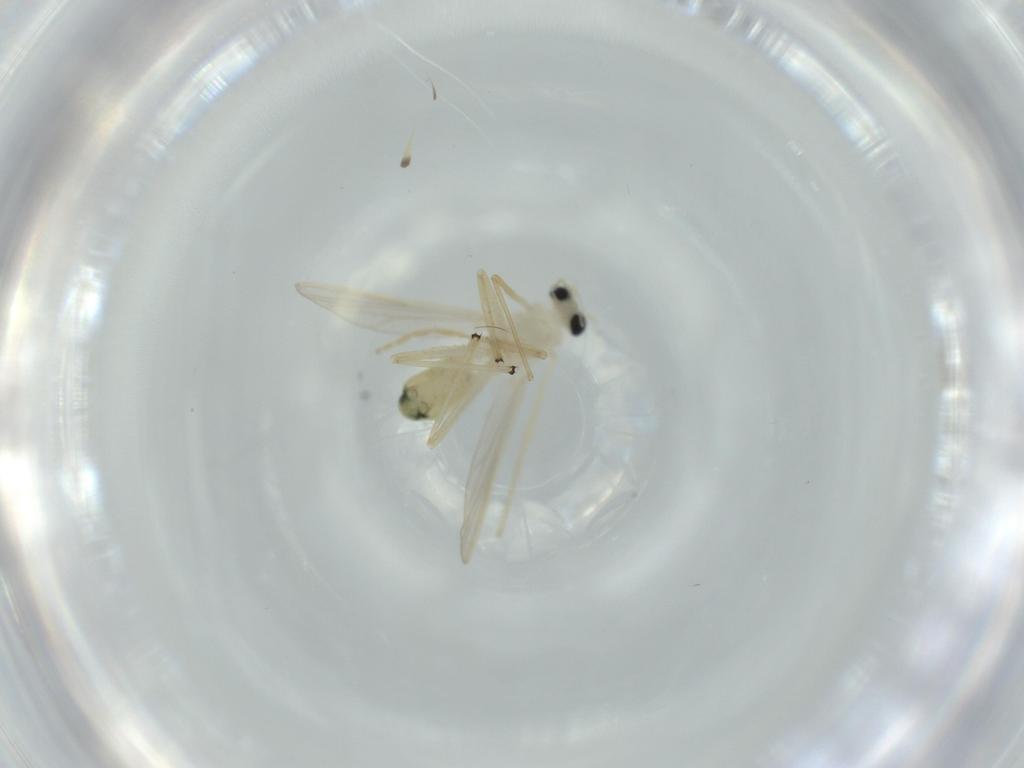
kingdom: Animalia
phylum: Arthropoda
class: Insecta
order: Diptera
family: Chironomidae
